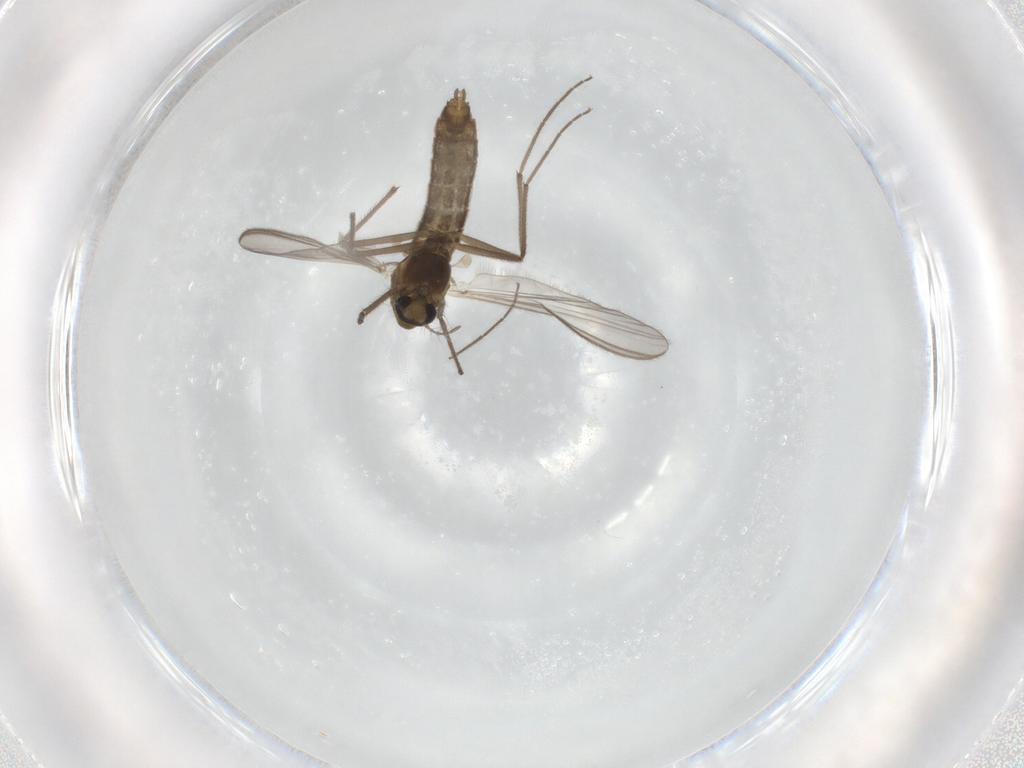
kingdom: Animalia
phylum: Arthropoda
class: Insecta
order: Diptera
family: Chironomidae
